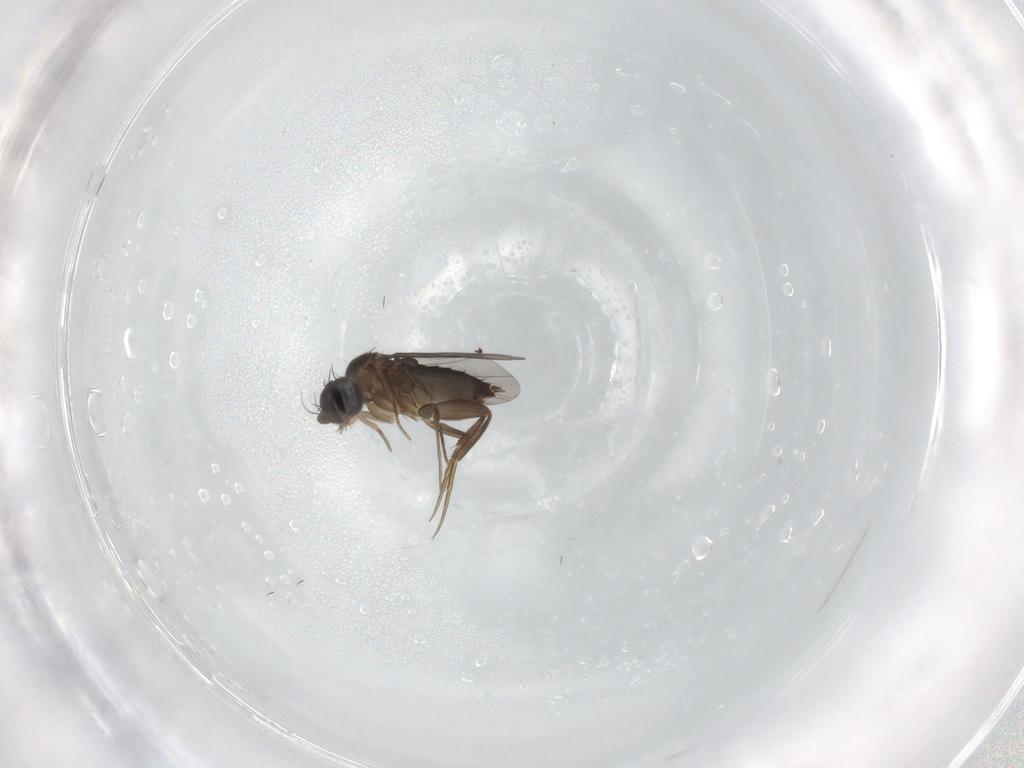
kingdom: Animalia
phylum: Arthropoda
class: Insecta
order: Diptera
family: Phoridae
